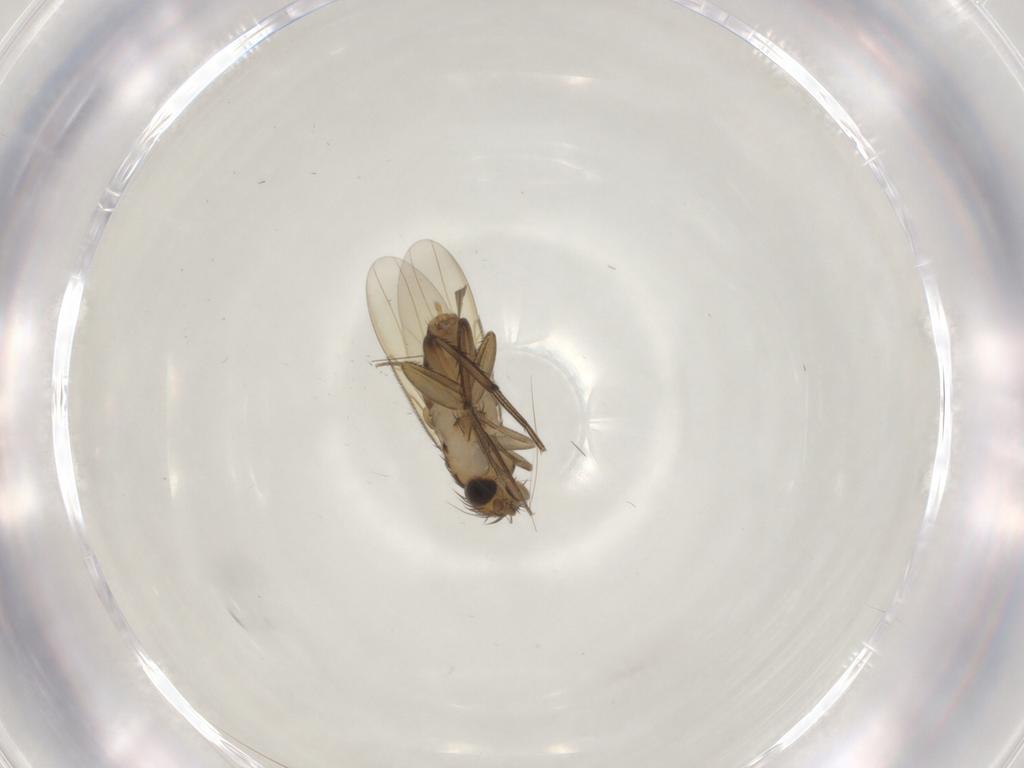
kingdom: Animalia
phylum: Arthropoda
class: Insecta
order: Diptera
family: Phoridae
